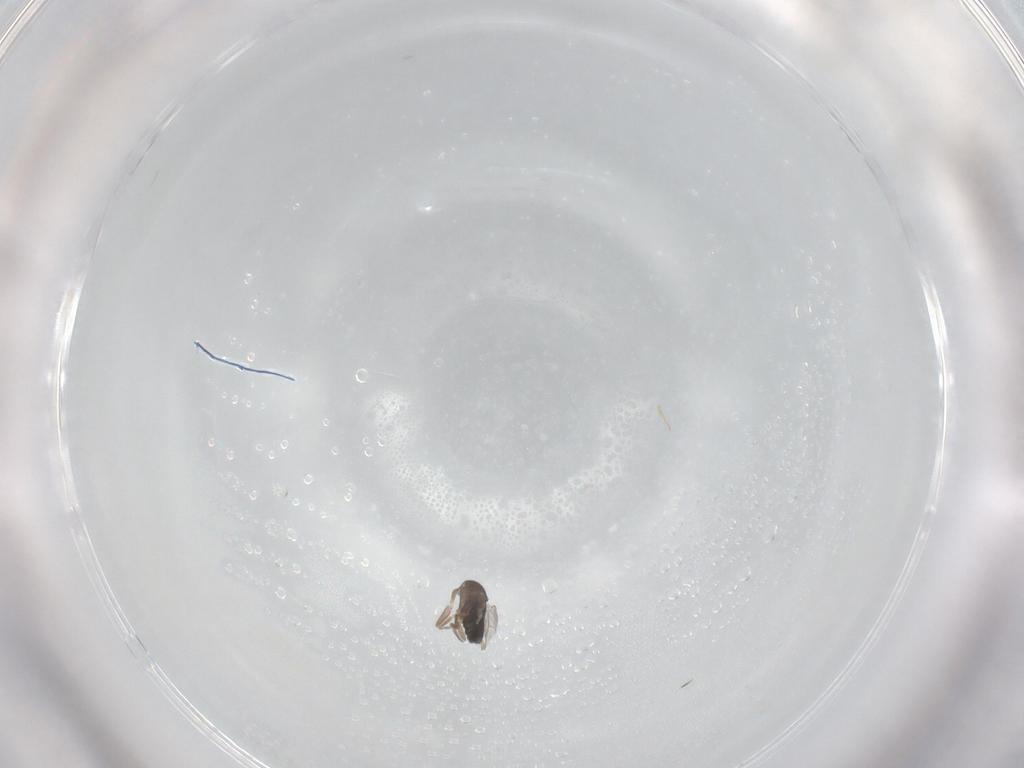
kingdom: Animalia
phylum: Arthropoda
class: Insecta
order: Diptera
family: Phoridae
